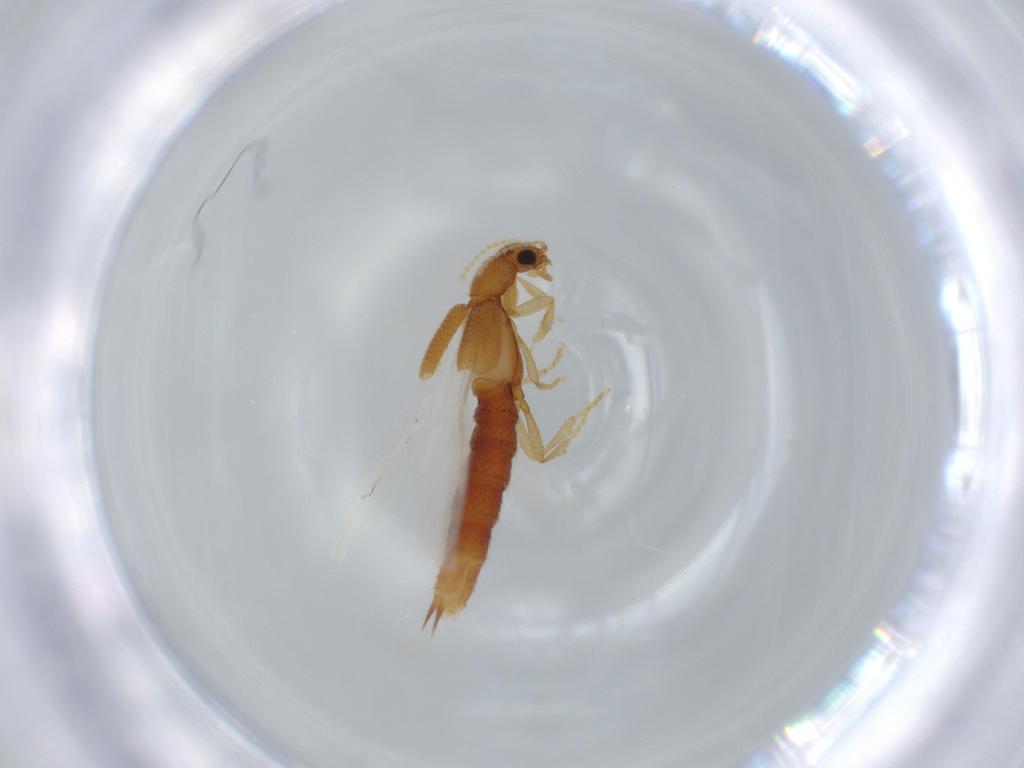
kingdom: Animalia
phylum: Arthropoda
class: Insecta
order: Coleoptera
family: Staphylinidae
